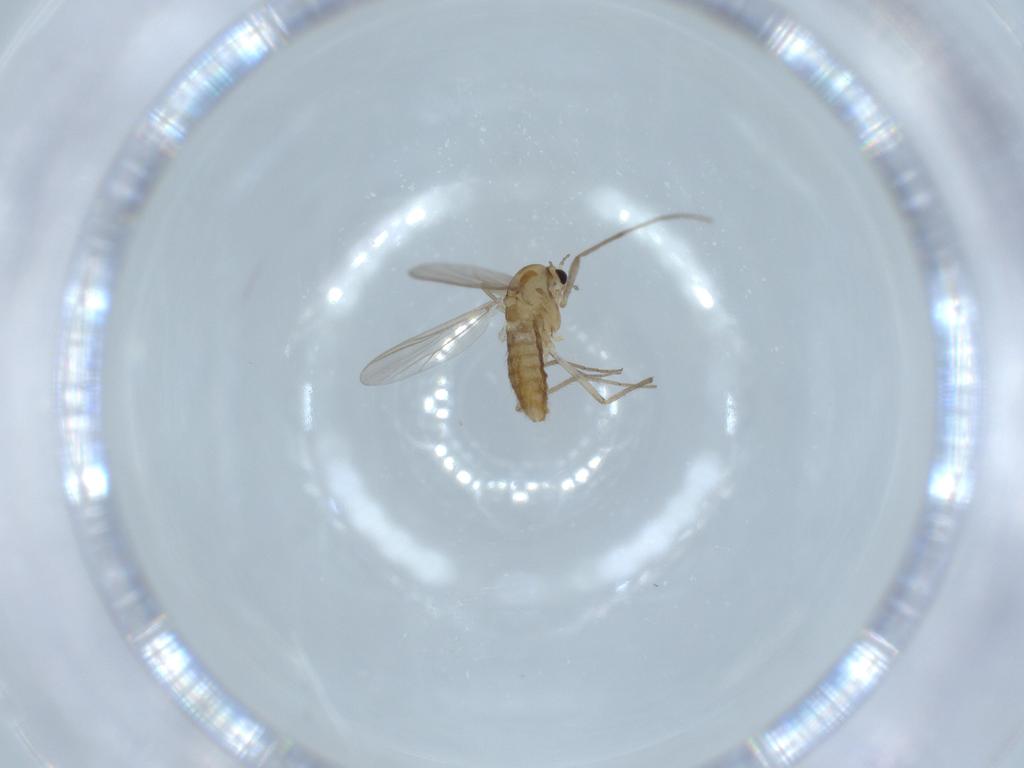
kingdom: Animalia
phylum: Arthropoda
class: Insecta
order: Diptera
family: Chironomidae
